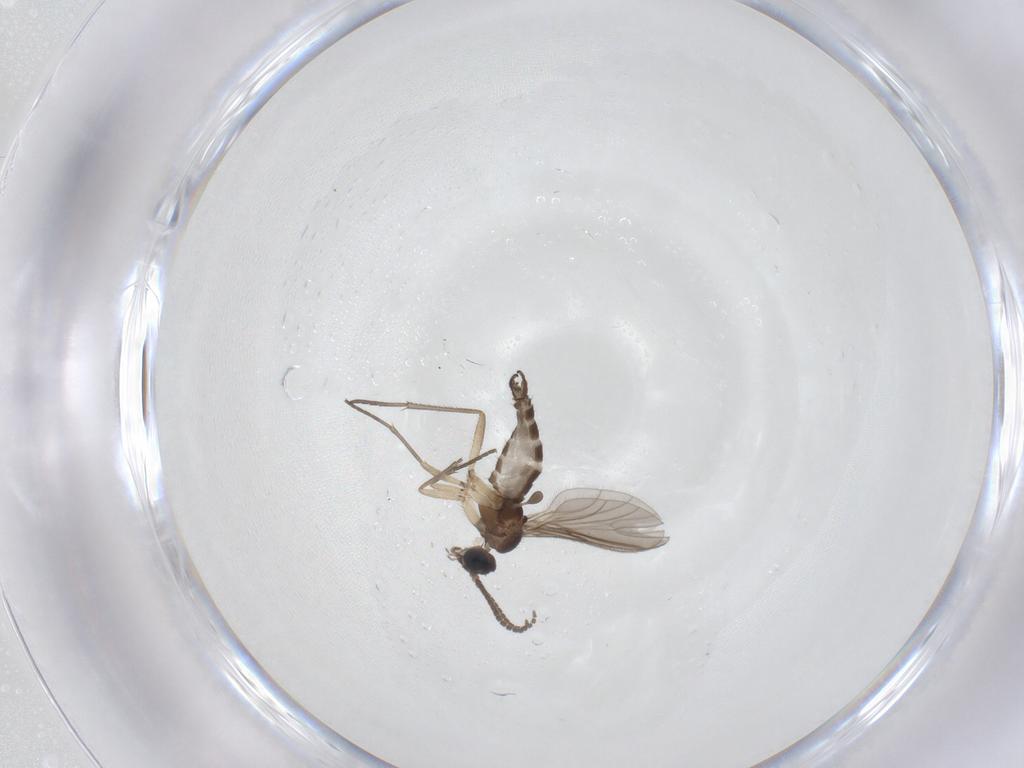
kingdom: Animalia
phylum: Arthropoda
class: Insecta
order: Diptera
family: Sciaridae
